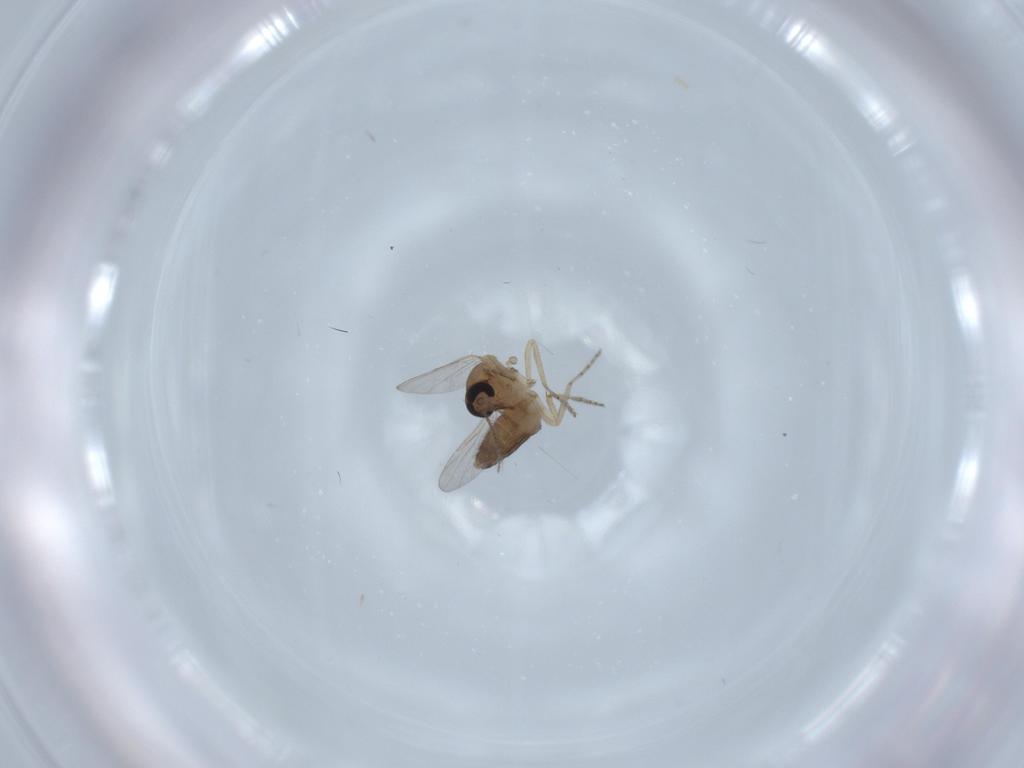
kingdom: Animalia
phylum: Arthropoda
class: Insecta
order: Diptera
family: Ceratopogonidae
